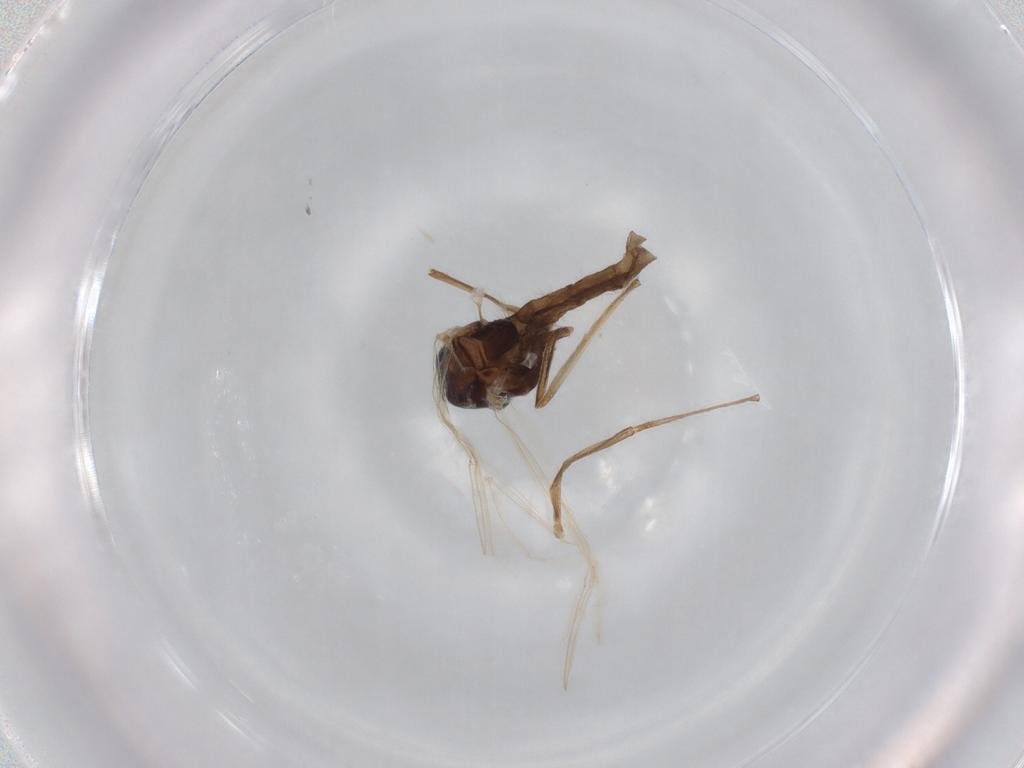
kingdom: Animalia
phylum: Arthropoda
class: Insecta
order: Diptera
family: Chironomidae
